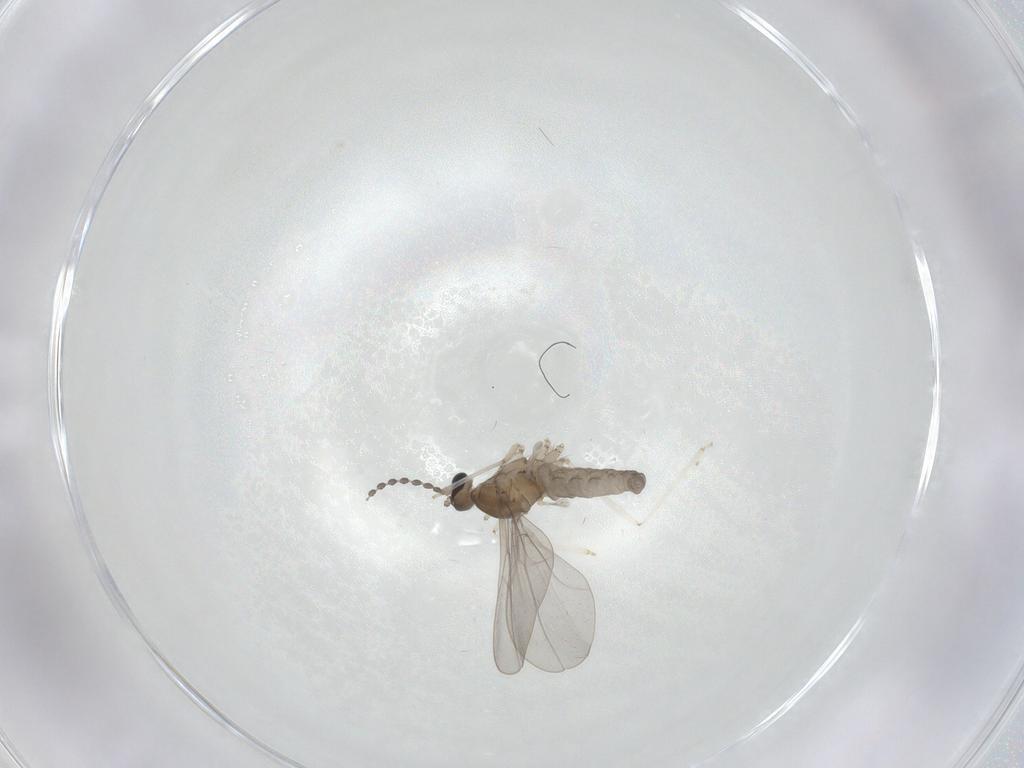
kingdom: Animalia
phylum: Arthropoda
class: Insecta
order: Diptera
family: Cecidomyiidae
